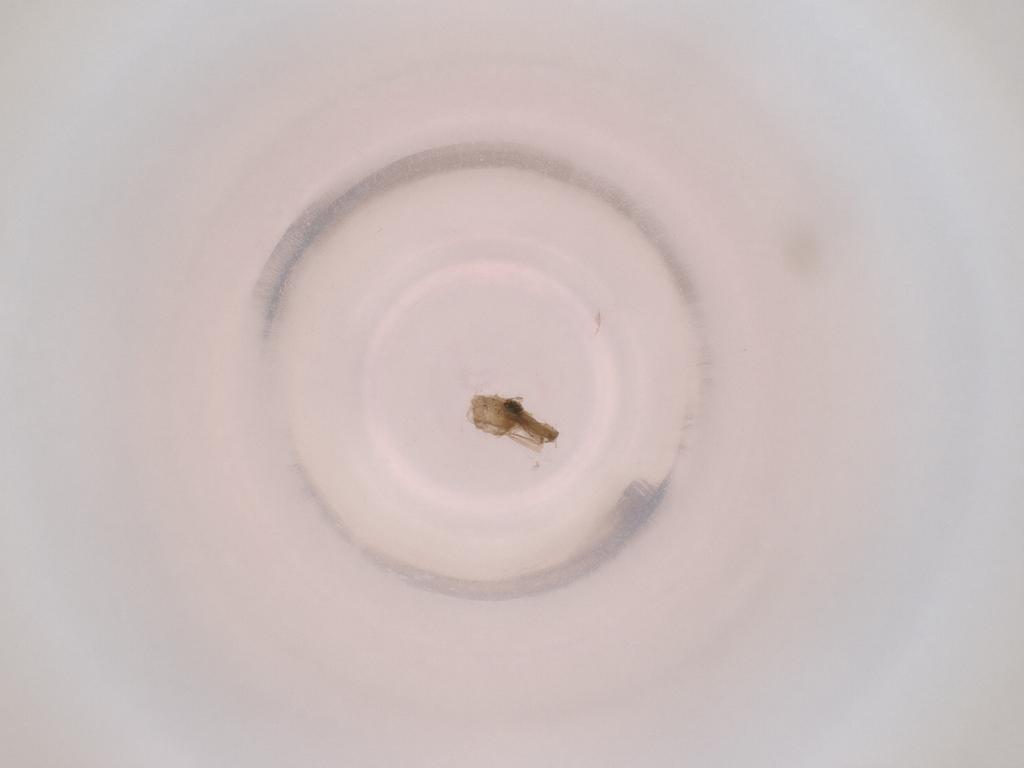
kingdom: Animalia
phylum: Arthropoda
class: Insecta
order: Diptera
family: Cecidomyiidae
